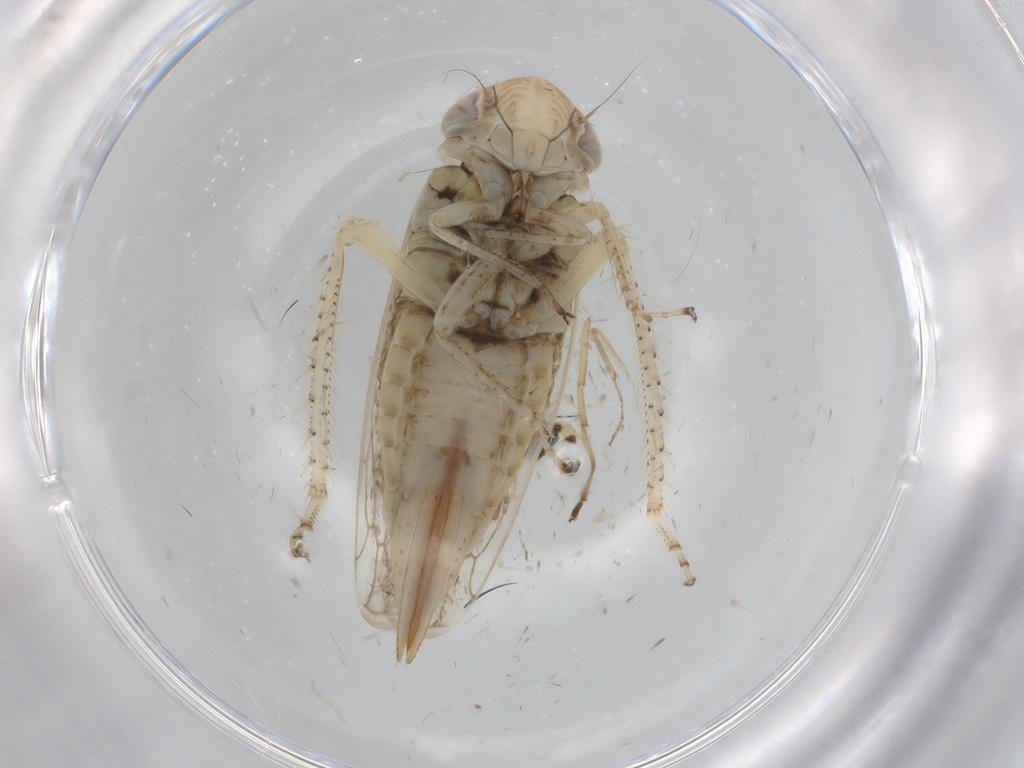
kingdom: Animalia
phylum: Arthropoda
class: Insecta
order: Hemiptera
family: Cicadellidae
